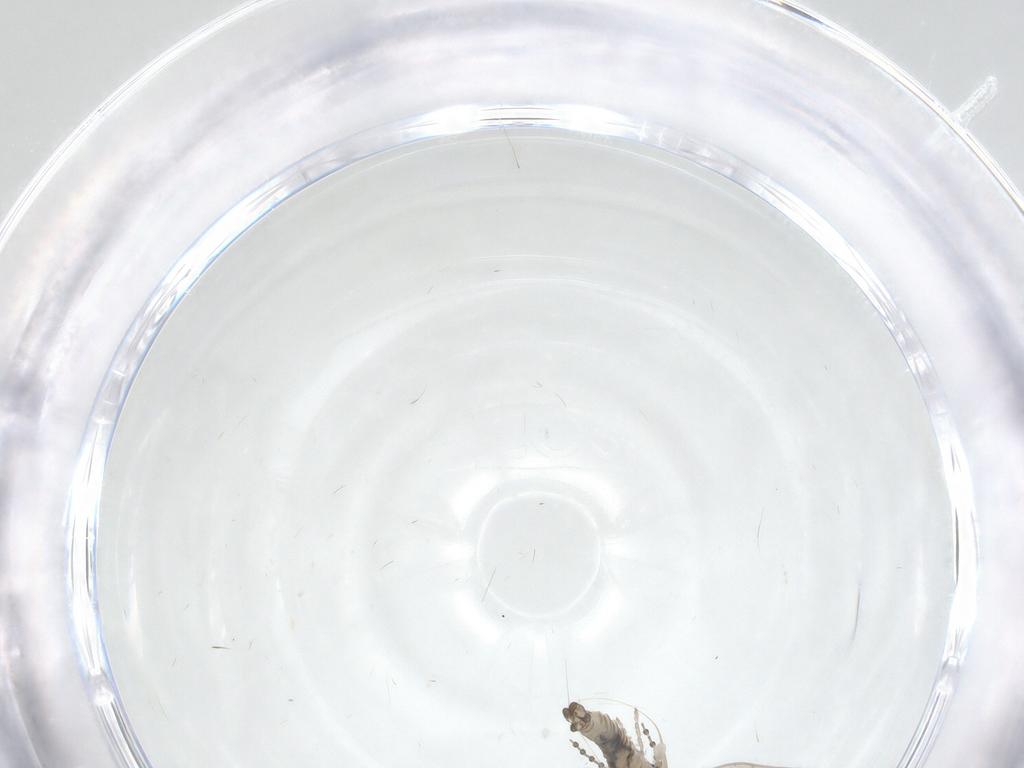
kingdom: Animalia
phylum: Arthropoda
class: Insecta
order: Diptera
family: Psychodidae
